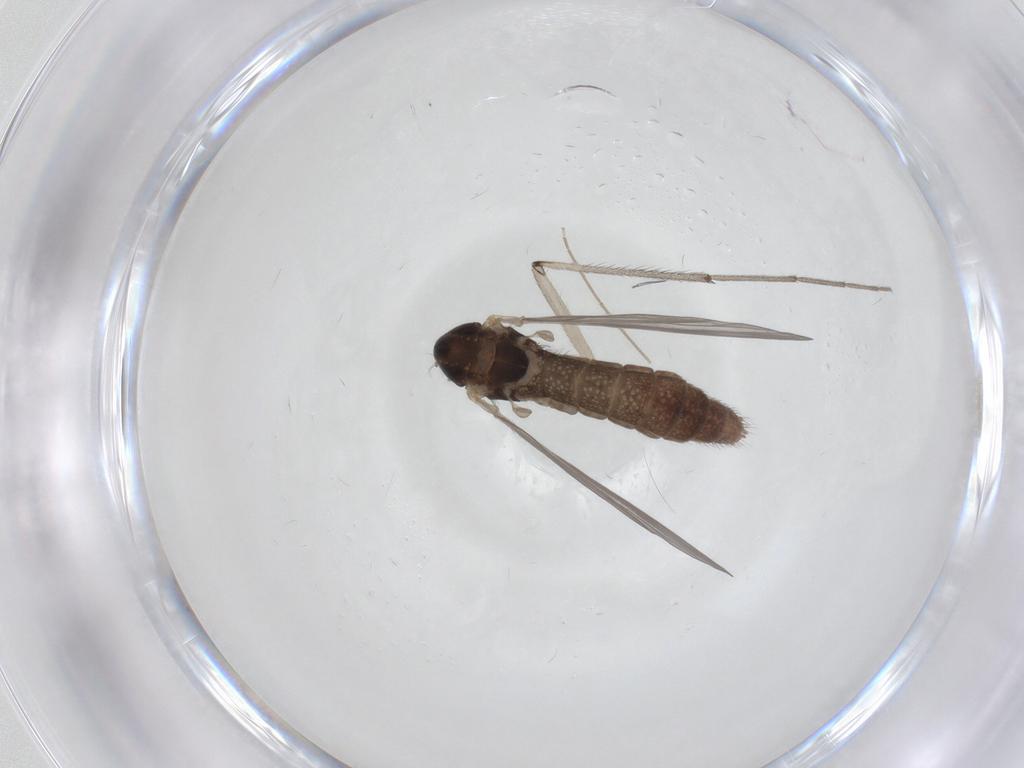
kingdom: Animalia
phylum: Arthropoda
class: Insecta
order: Diptera
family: Chironomidae
